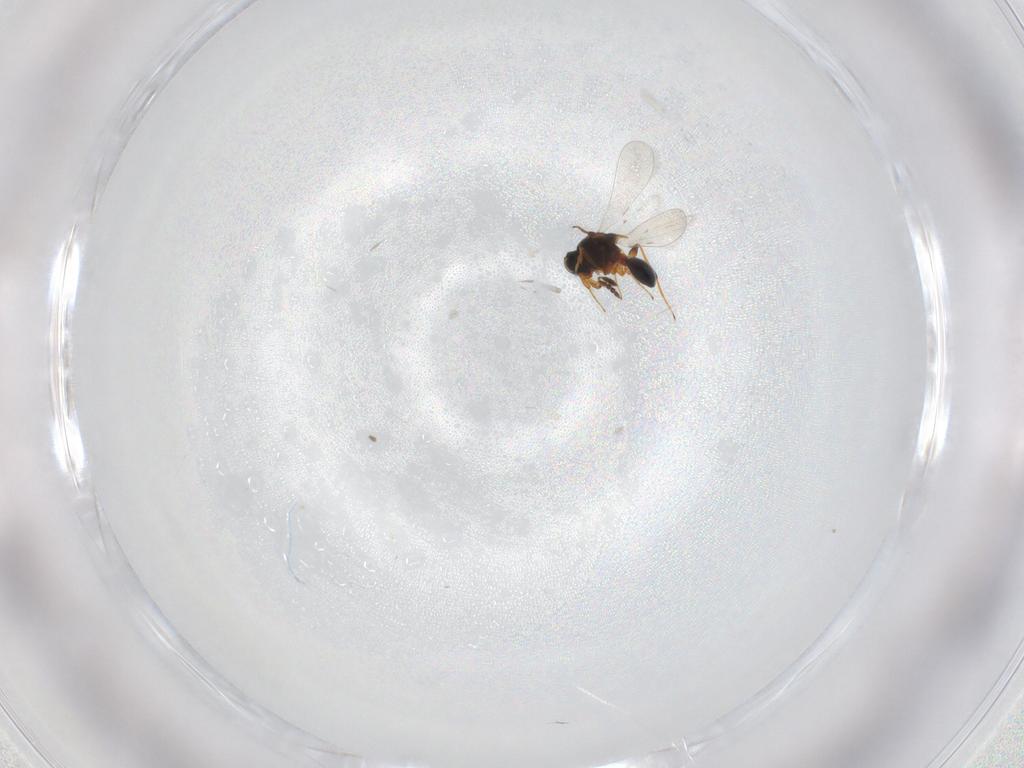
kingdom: Animalia
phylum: Arthropoda
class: Insecta
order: Hymenoptera
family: Platygastridae
